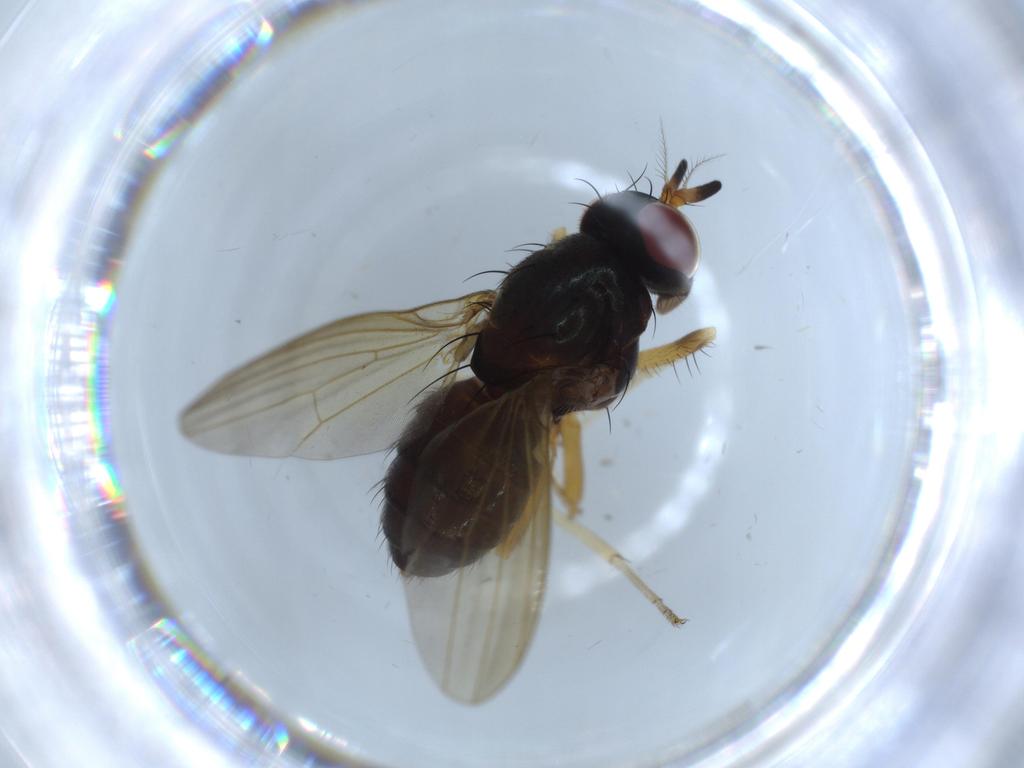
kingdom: Animalia
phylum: Arthropoda
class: Insecta
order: Diptera
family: Cecidomyiidae
